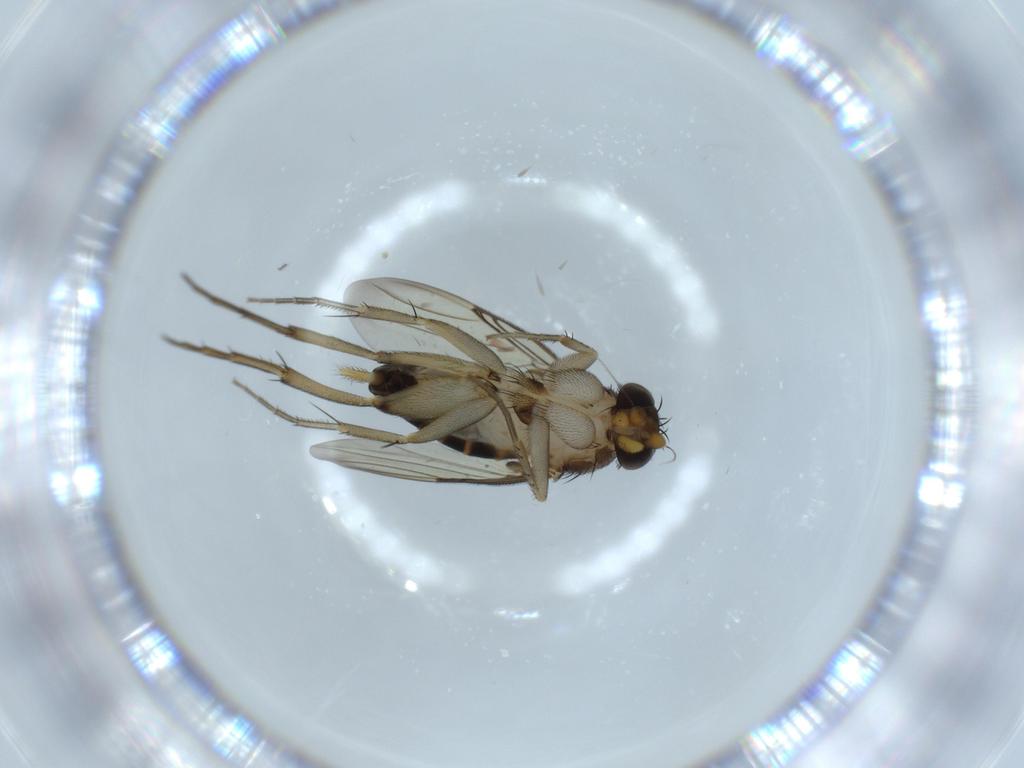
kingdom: Animalia
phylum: Arthropoda
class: Insecta
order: Diptera
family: Phoridae
